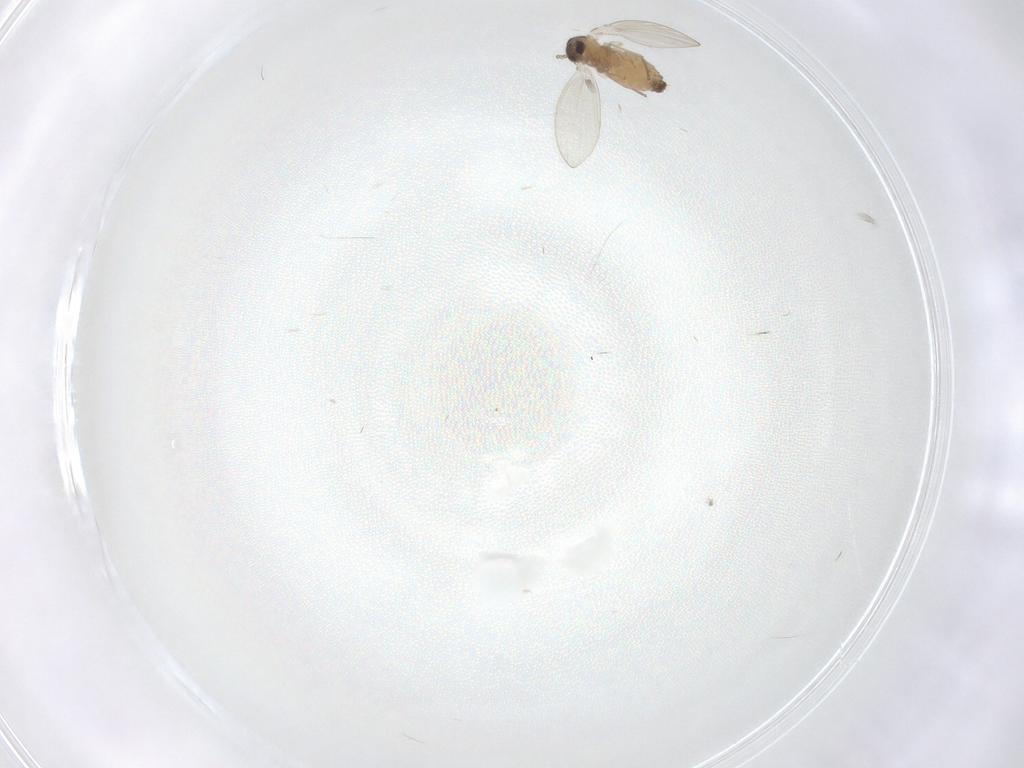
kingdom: Animalia
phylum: Arthropoda
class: Insecta
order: Diptera
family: Psychodidae
